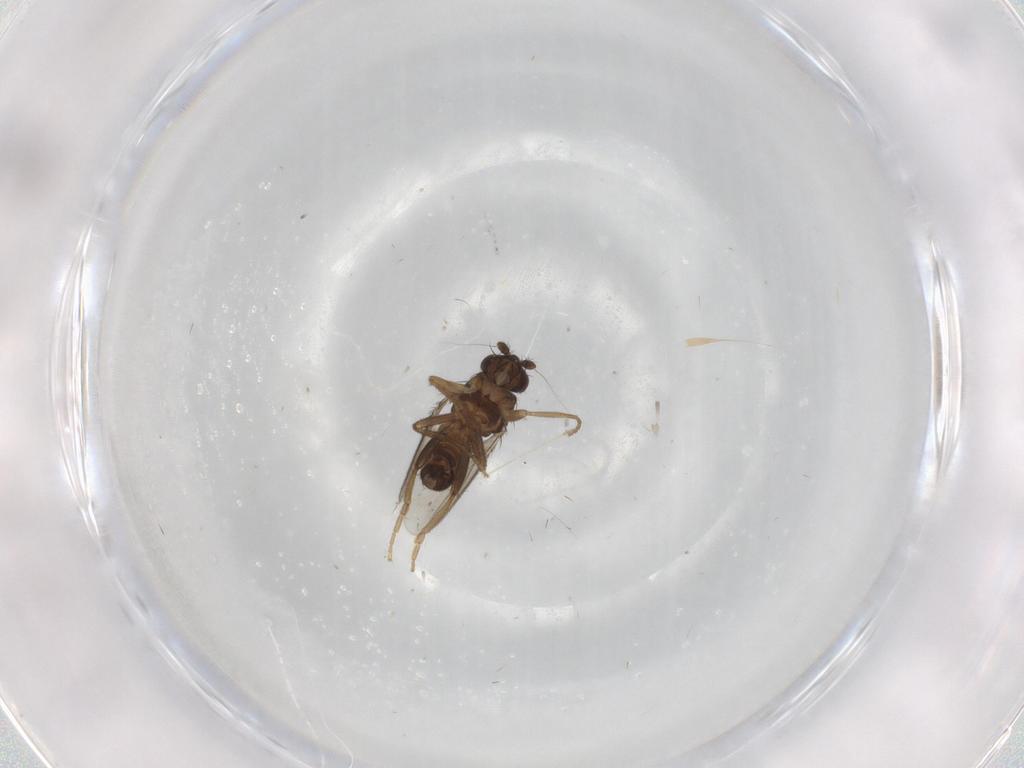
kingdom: Animalia
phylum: Arthropoda
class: Insecta
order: Diptera
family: Sphaeroceridae
